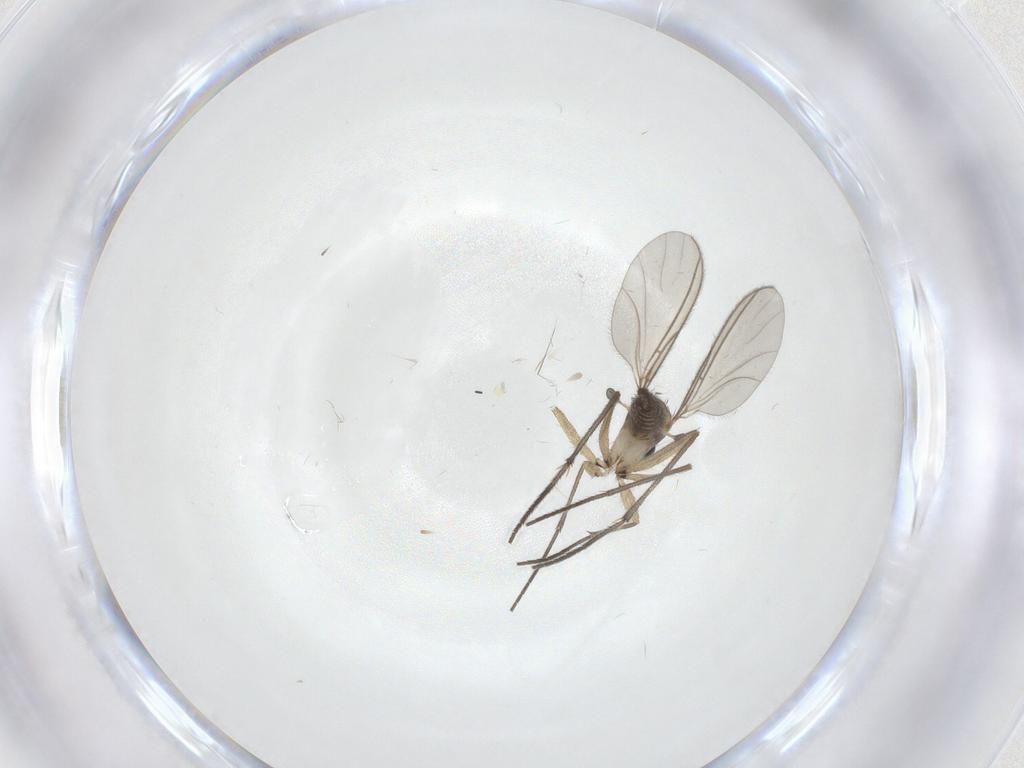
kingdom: Animalia
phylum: Arthropoda
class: Insecta
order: Diptera
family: Sciaridae
